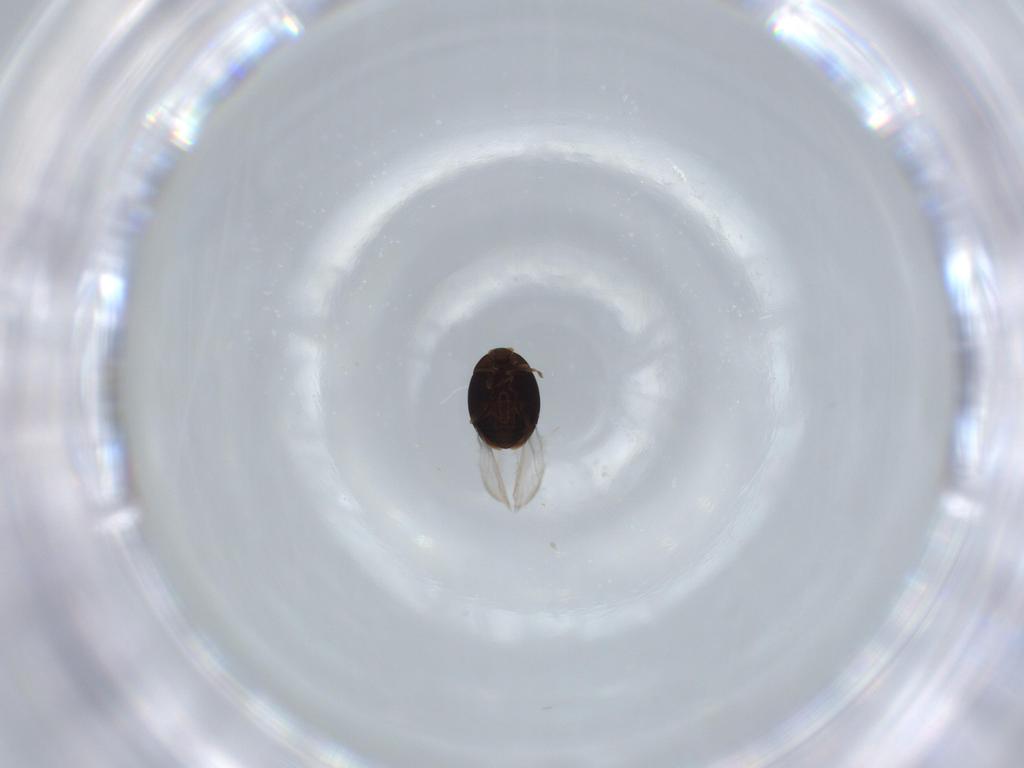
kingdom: Animalia
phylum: Arthropoda
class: Insecta
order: Coleoptera
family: Corylophidae
